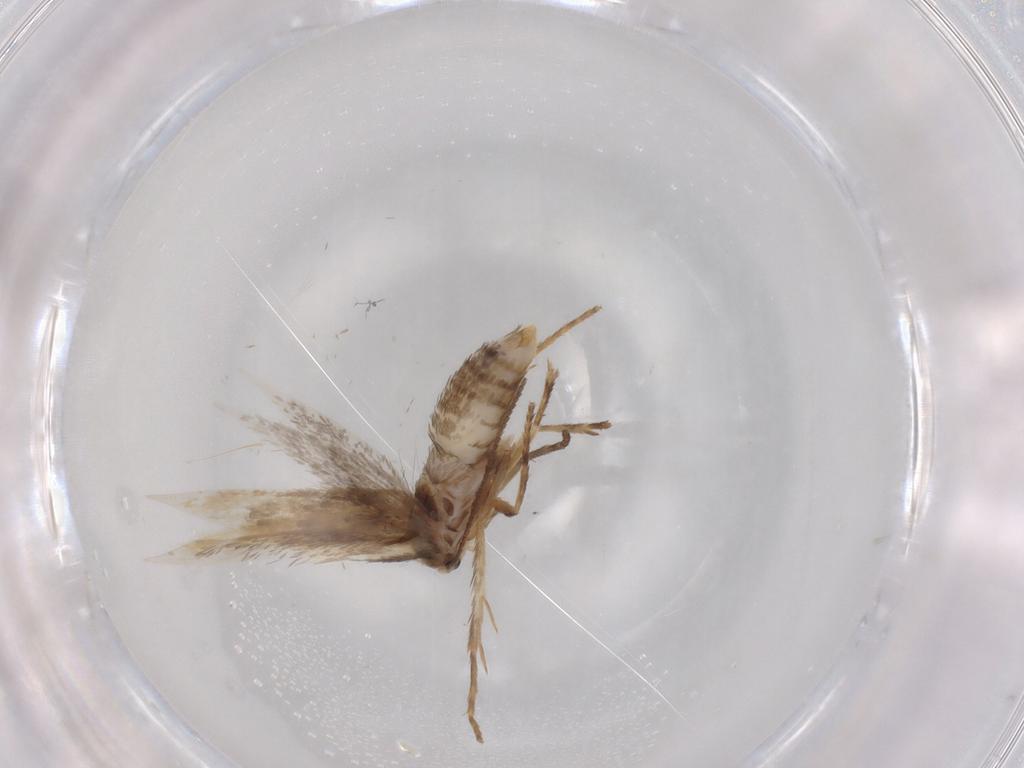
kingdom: Animalia
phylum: Arthropoda
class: Insecta
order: Lepidoptera
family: Nepticulidae
